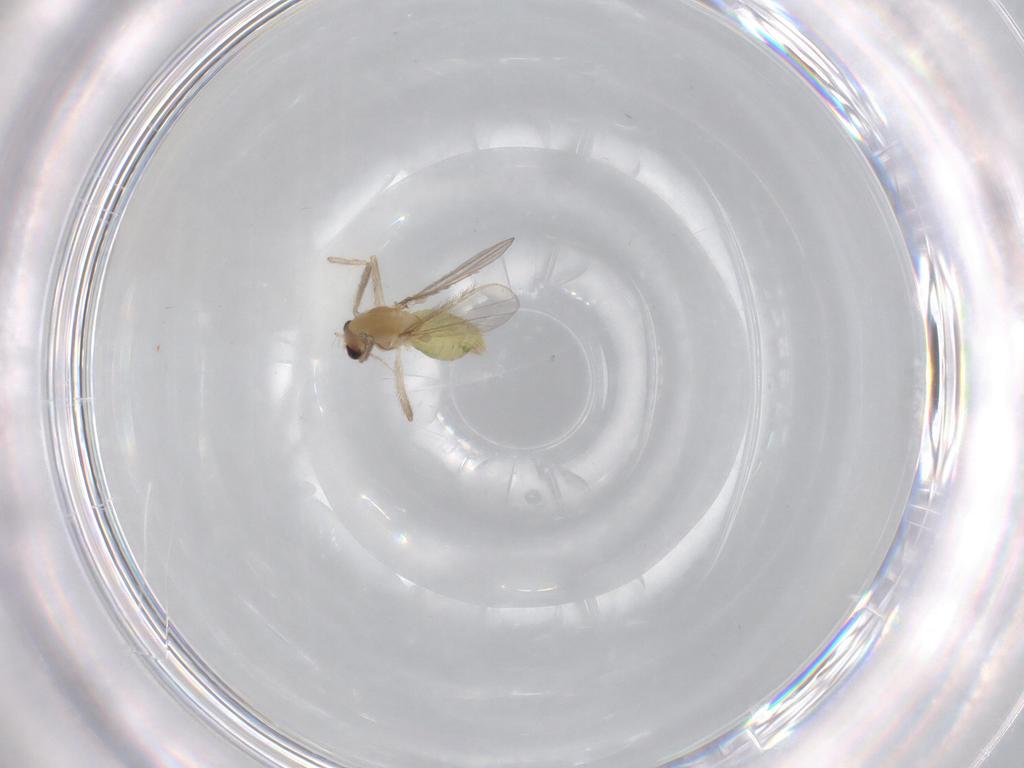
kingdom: Animalia
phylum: Arthropoda
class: Insecta
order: Diptera
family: Chironomidae
